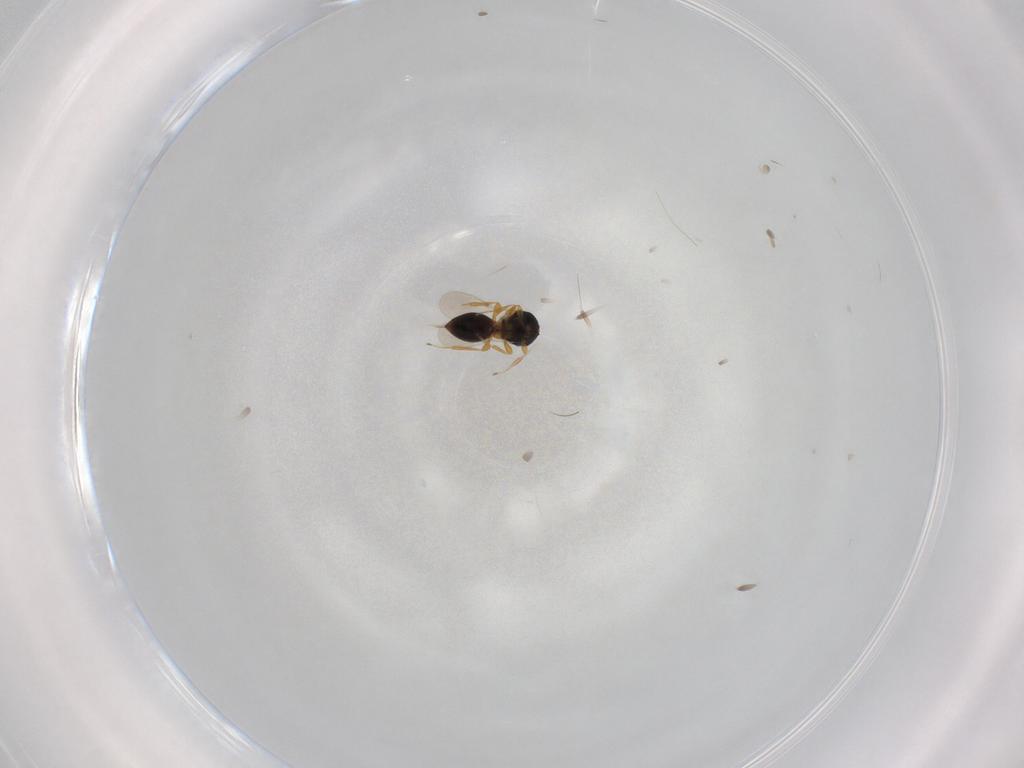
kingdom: Animalia
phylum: Arthropoda
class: Insecta
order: Hymenoptera
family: Platygastridae
